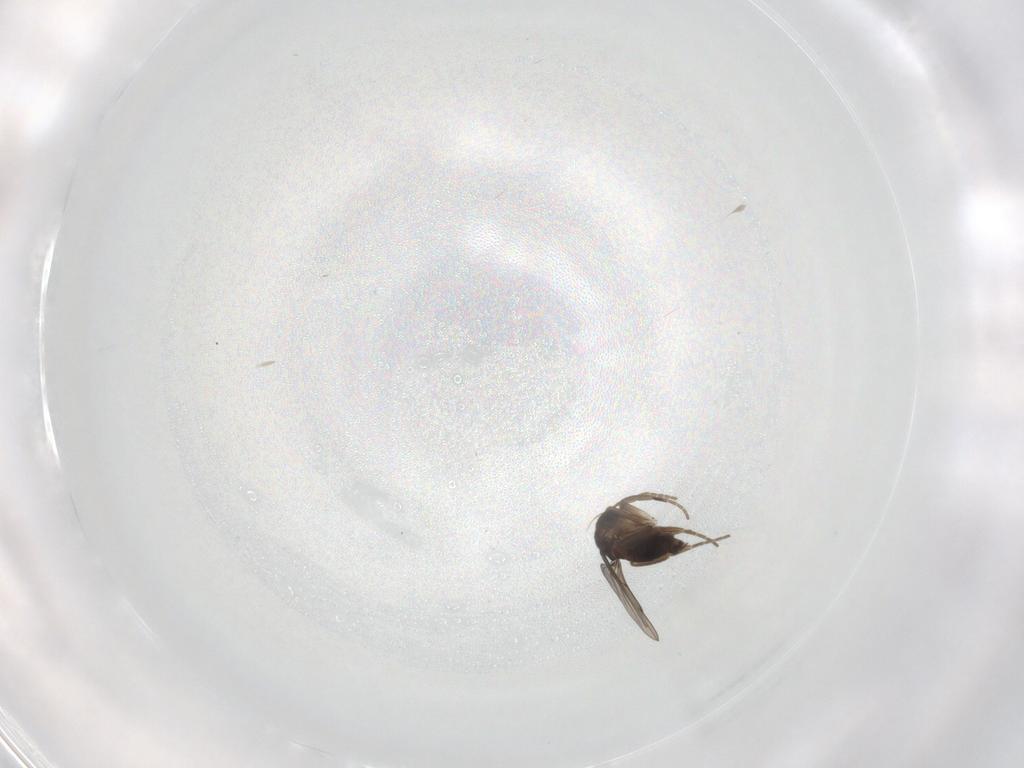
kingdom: Animalia
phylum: Arthropoda
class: Insecta
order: Diptera
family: Phoridae
